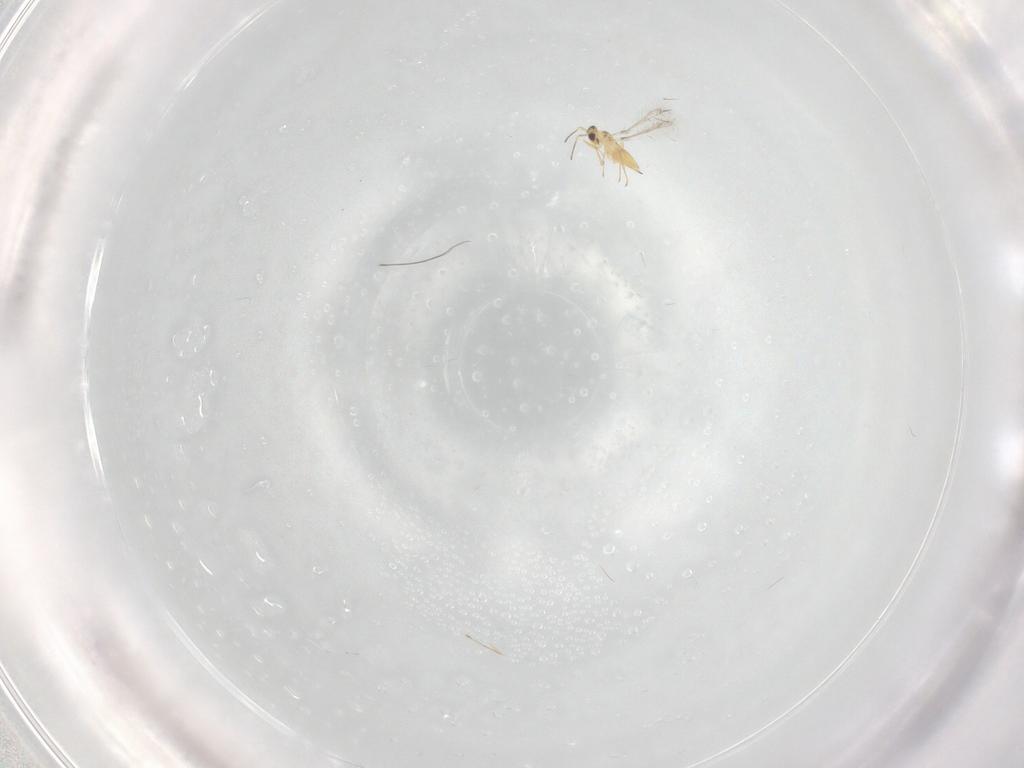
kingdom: Animalia
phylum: Arthropoda
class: Insecta
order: Hymenoptera
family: Mymaridae
